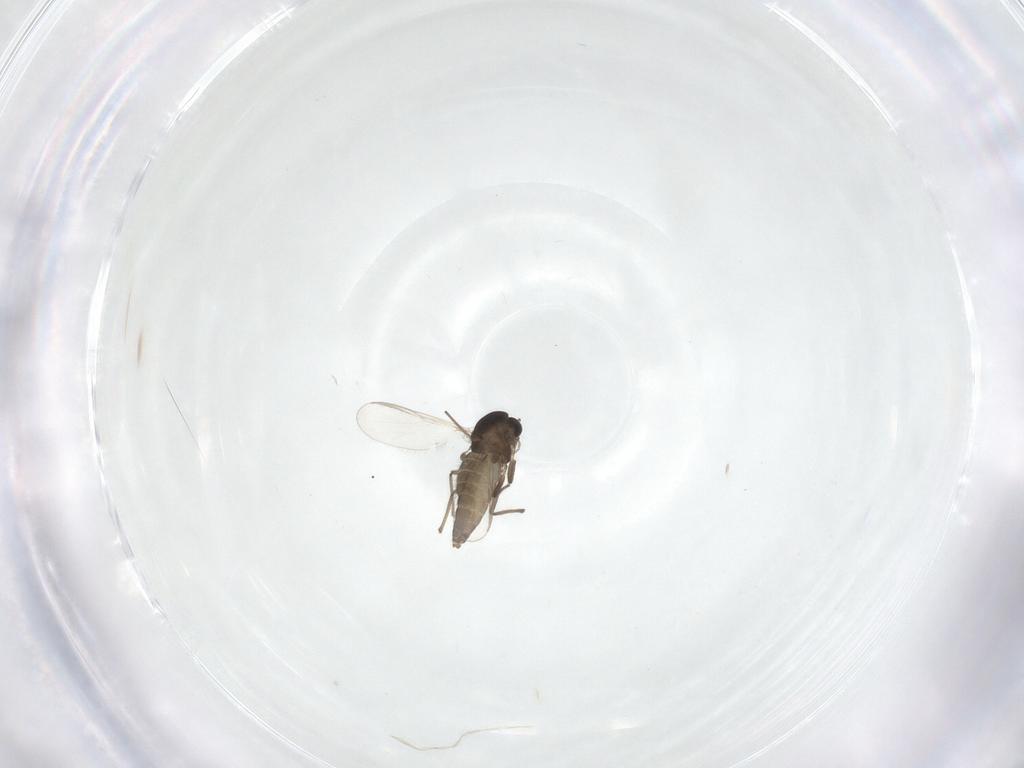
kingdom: Animalia
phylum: Arthropoda
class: Insecta
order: Diptera
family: Chironomidae
